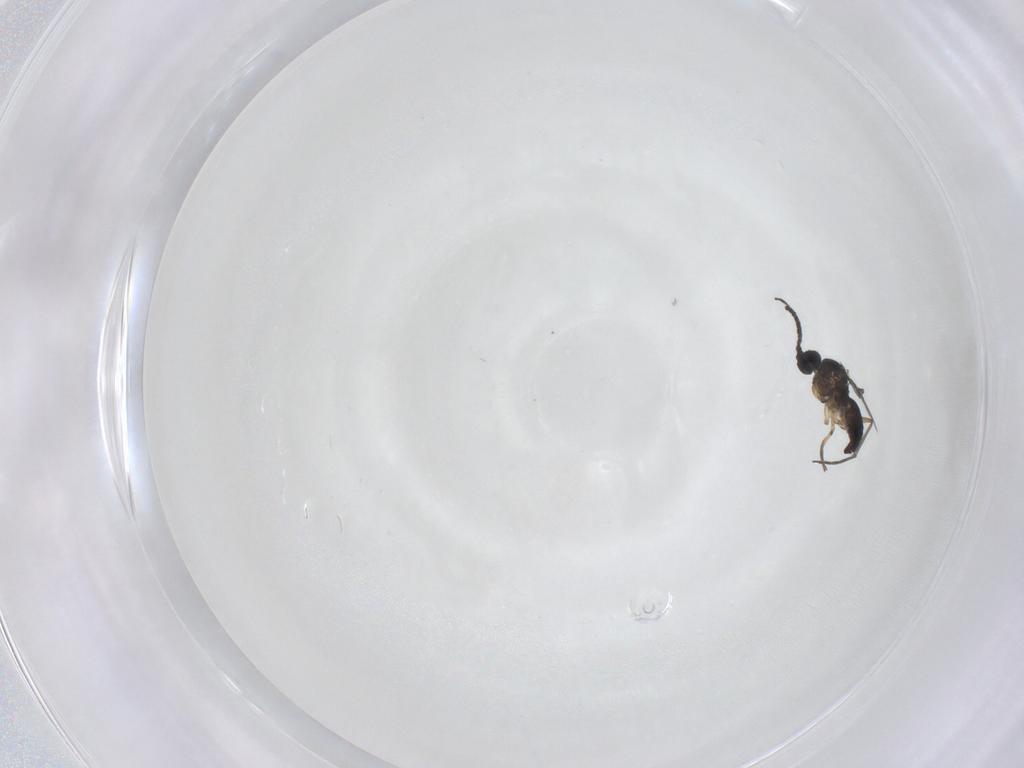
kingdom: Animalia
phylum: Arthropoda
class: Insecta
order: Diptera
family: Sciaridae
